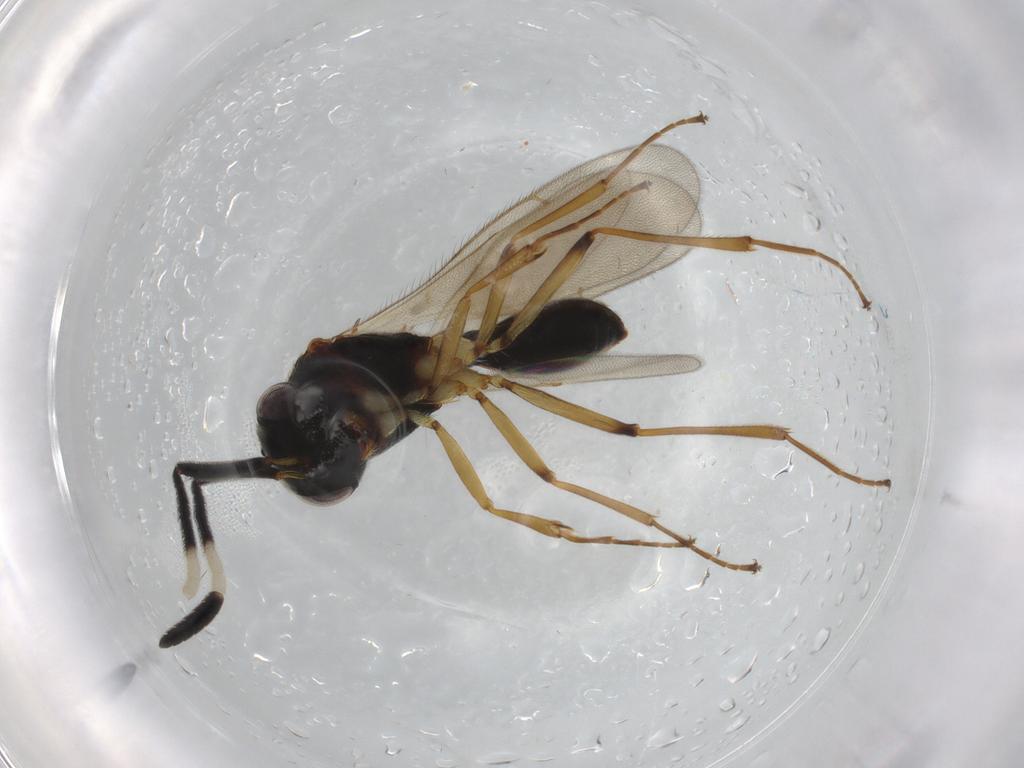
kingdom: Animalia
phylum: Arthropoda
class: Insecta
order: Hymenoptera
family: Scelionidae
